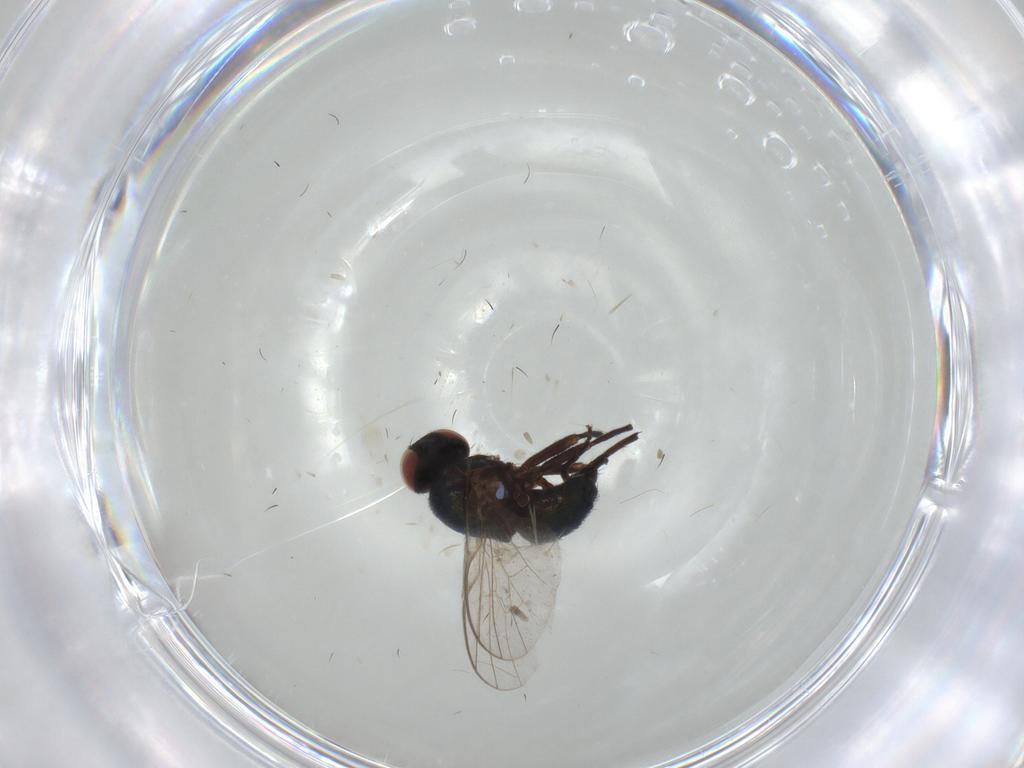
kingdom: Animalia
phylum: Arthropoda
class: Insecta
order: Diptera
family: Agromyzidae
